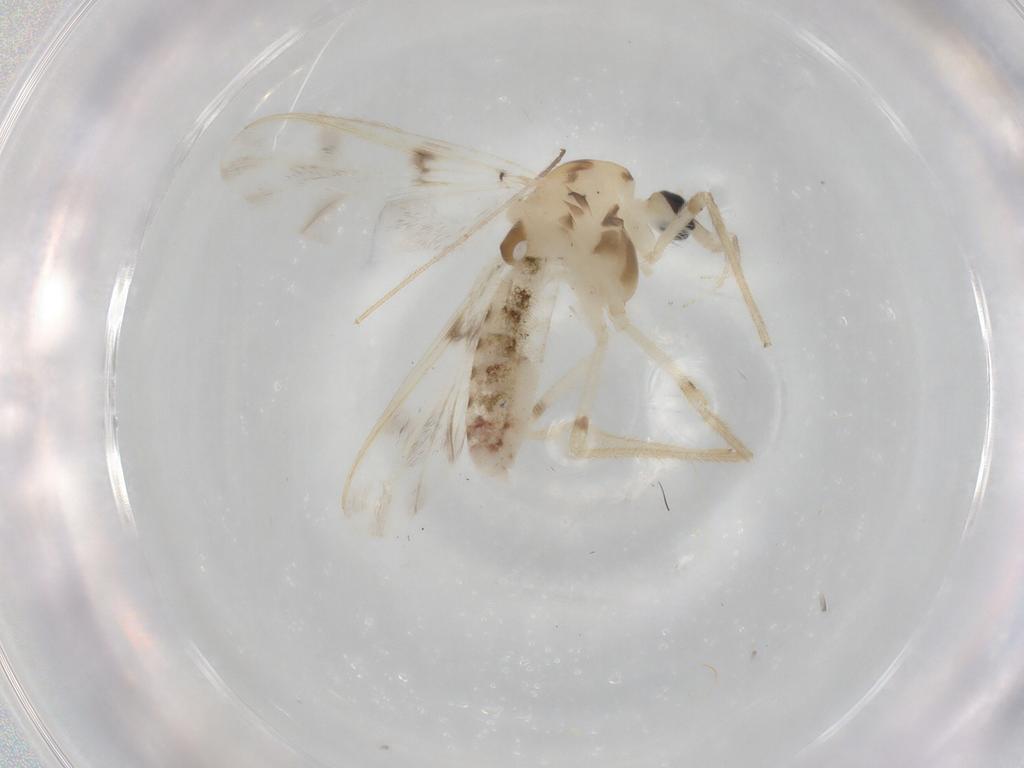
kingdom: Animalia
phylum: Arthropoda
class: Insecta
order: Diptera
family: Chironomidae
